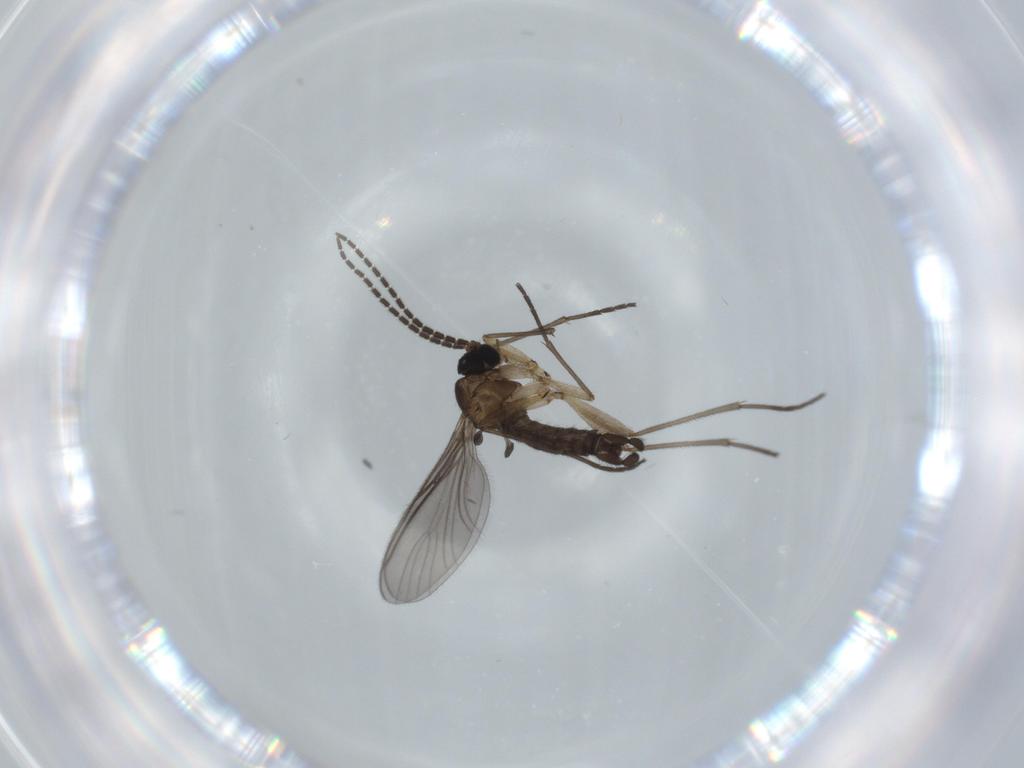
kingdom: Animalia
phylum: Arthropoda
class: Insecta
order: Diptera
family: Sciaridae
